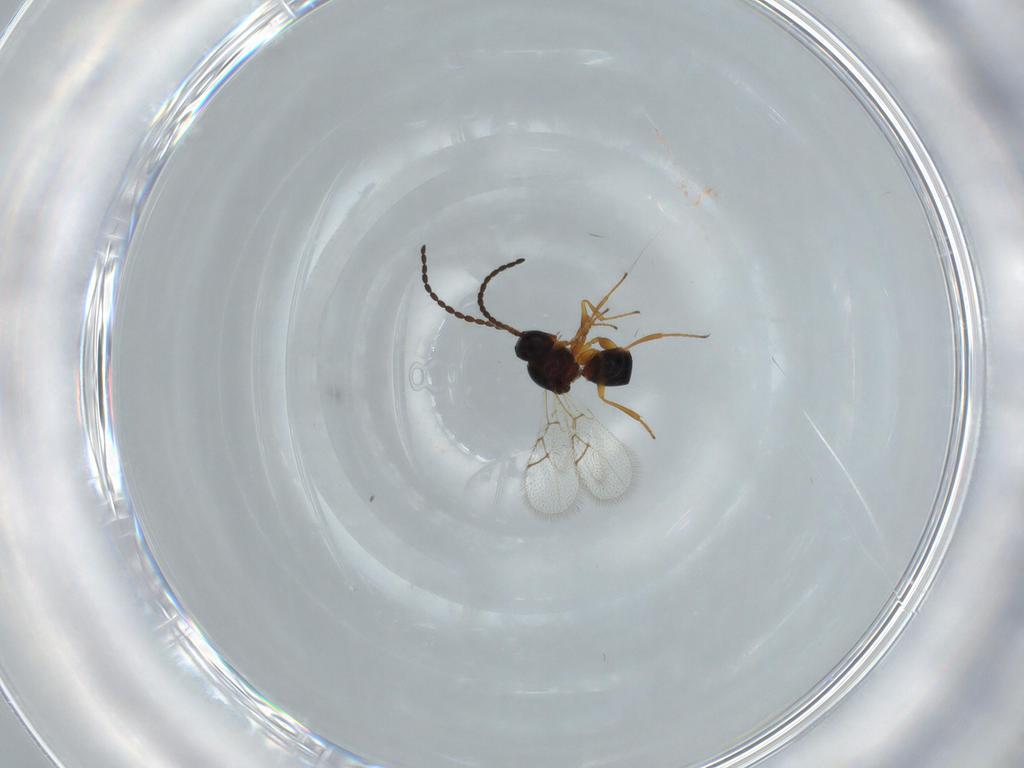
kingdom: Animalia
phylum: Arthropoda
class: Insecta
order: Hymenoptera
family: Figitidae
